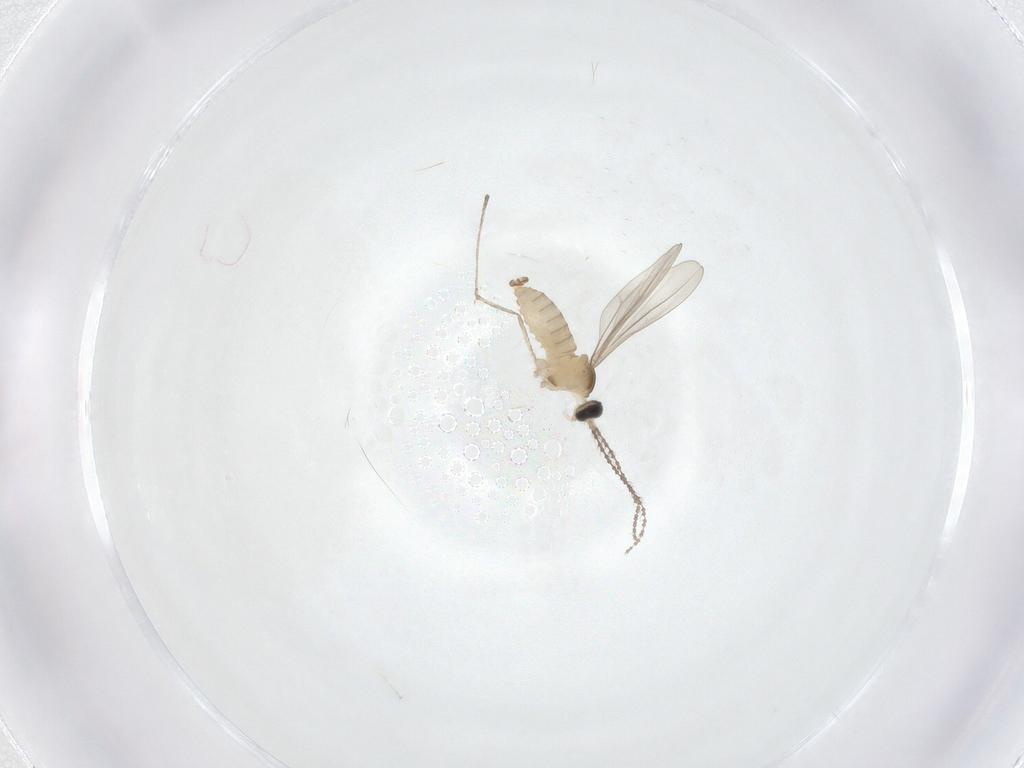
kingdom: Animalia
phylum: Arthropoda
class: Insecta
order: Diptera
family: Cecidomyiidae
